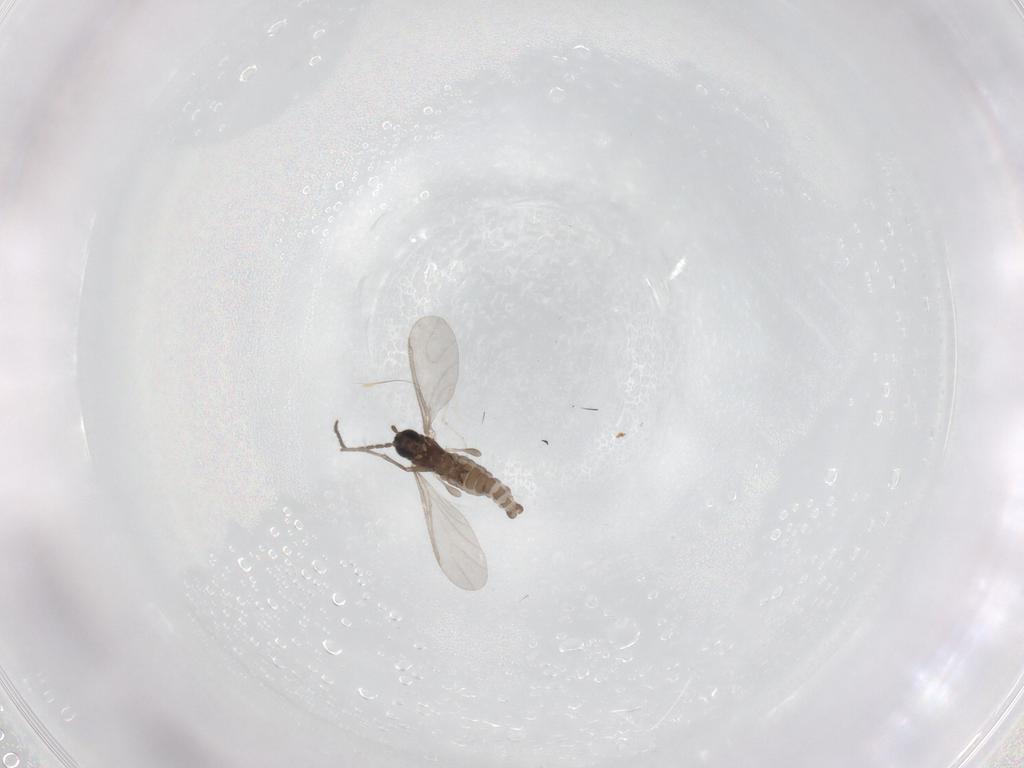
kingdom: Animalia
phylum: Arthropoda
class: Insecta
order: Diptera
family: Sciaridae
